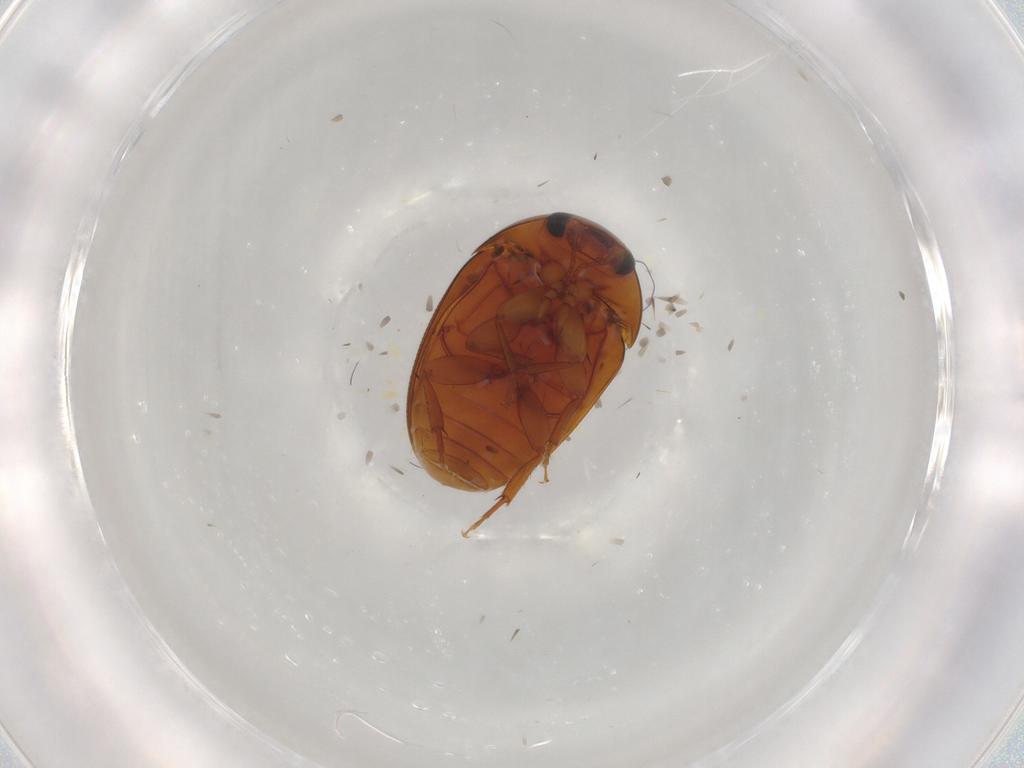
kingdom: Animalia
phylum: Arthropoda
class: Insecta
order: Coleoptera
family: Phalacridae
